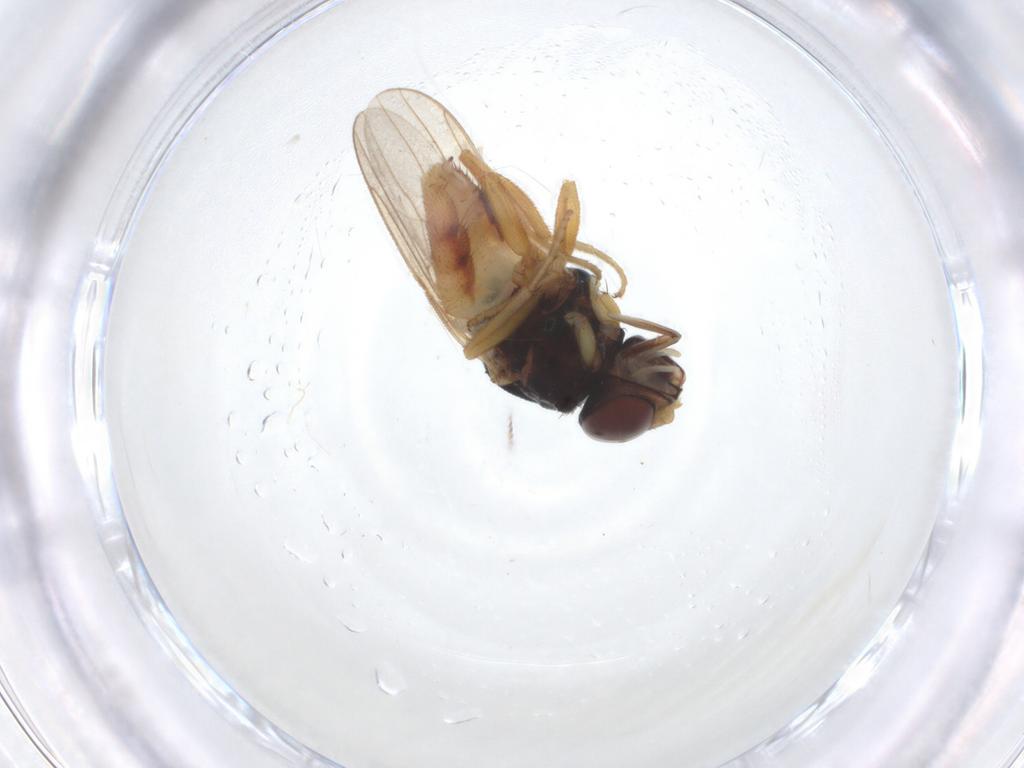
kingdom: Animalia
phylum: Arthropoda
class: Insecta
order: Diptera
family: Chloropidae
